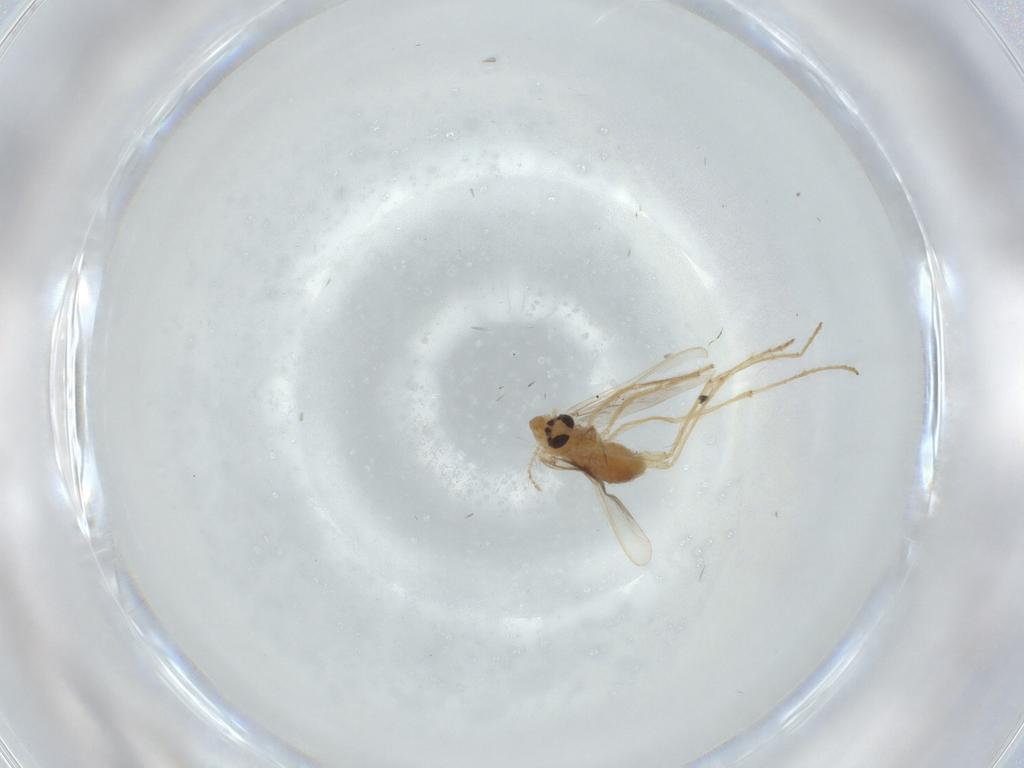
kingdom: Animalia
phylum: Arthropoda
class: Insecta
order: Diptera
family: Chironomidae
